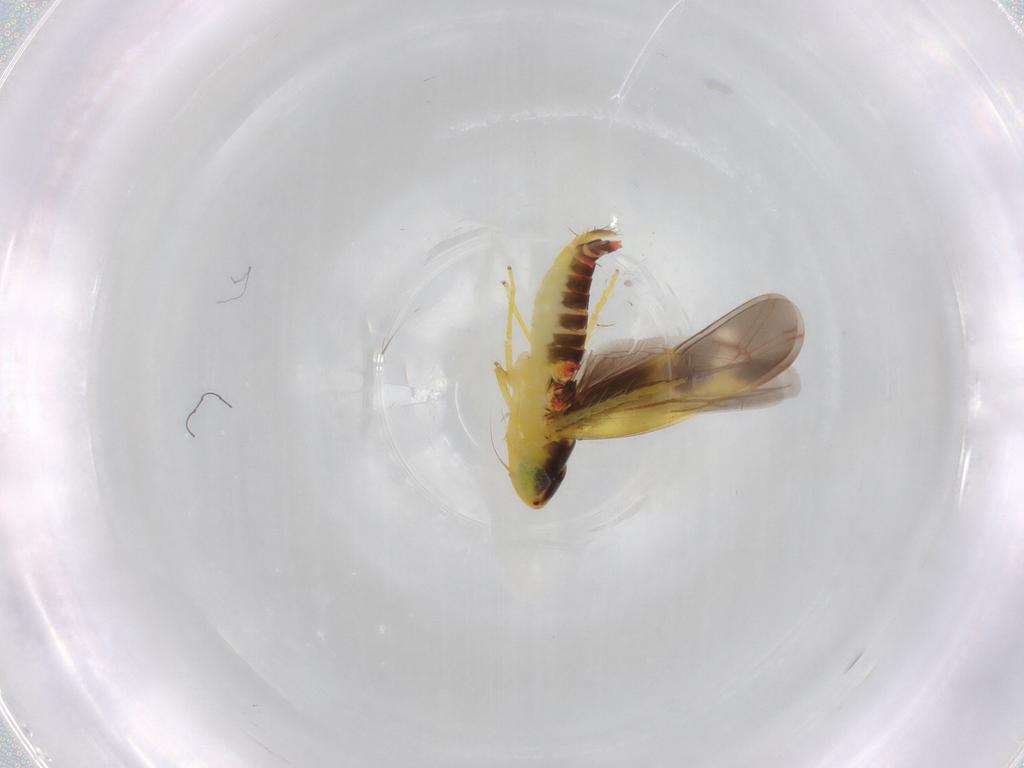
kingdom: Animalia
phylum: Arthropoda
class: Insecta
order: Hemiptera
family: Cicadellidae
